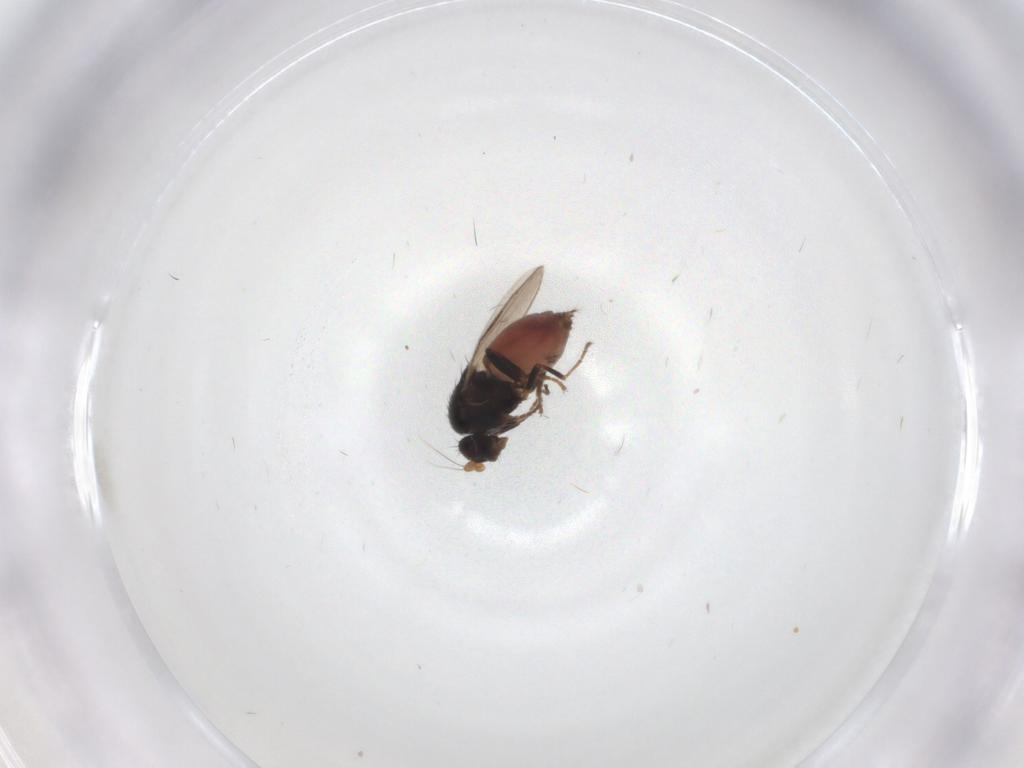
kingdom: Animalia
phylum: Arthropoda
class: Insecta
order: Diptera
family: Sphaeroceridae
